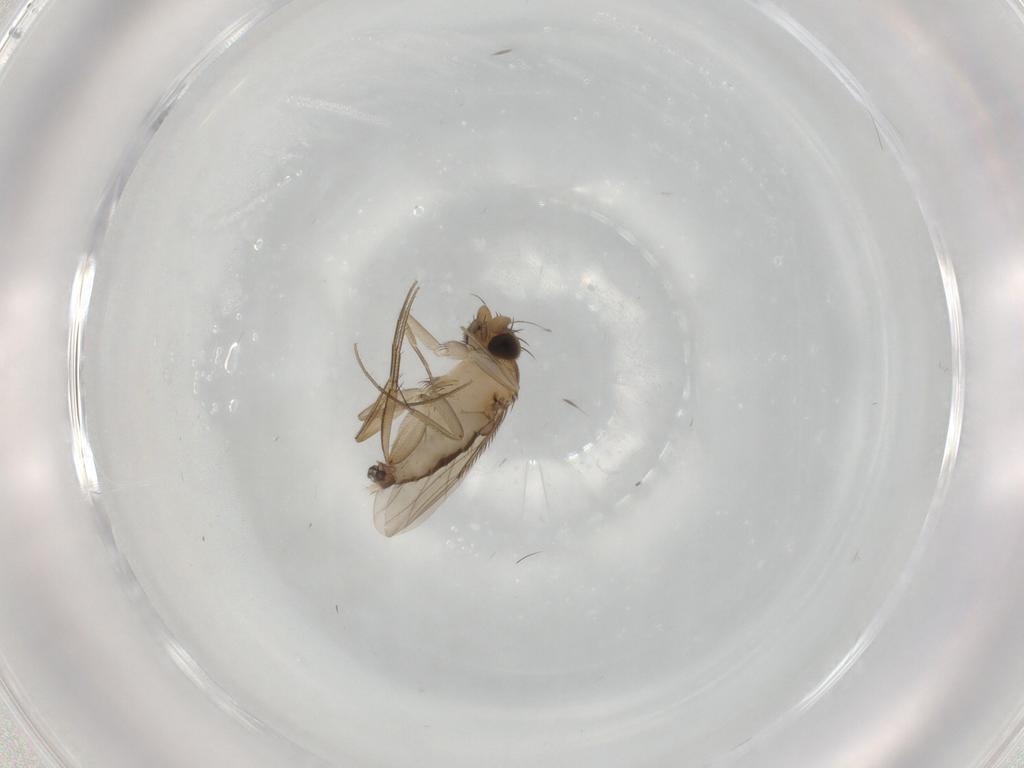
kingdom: Animalia
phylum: Arthropoda
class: Insecta
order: Diptera
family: Phoridae
